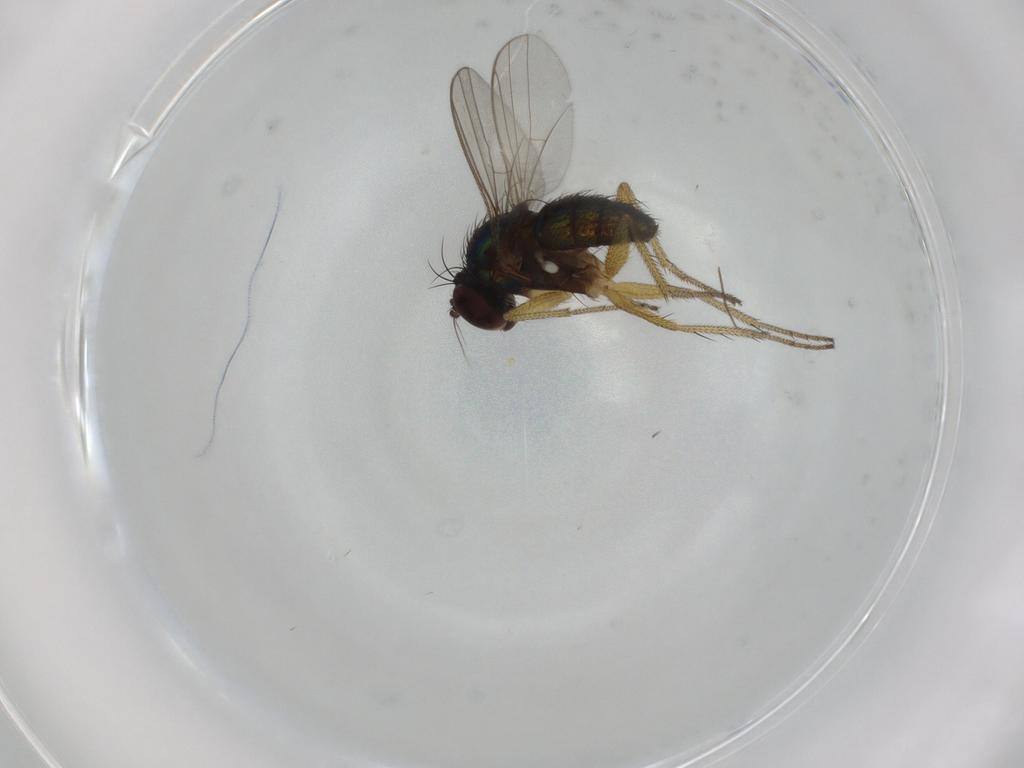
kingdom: Animalia
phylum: Arthropoda
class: Insecta
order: Diptera
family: Dolichopodidae
